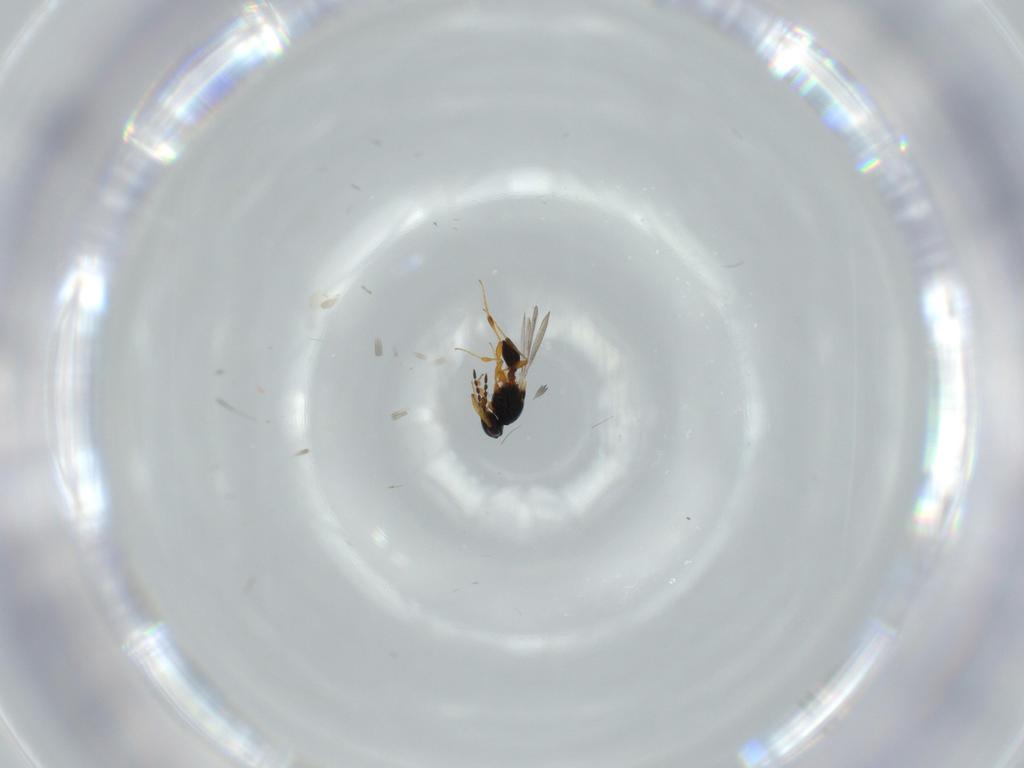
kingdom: Animalia
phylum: Arthropoda
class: Insecta
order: Hymenoptera
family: Platygastridae
